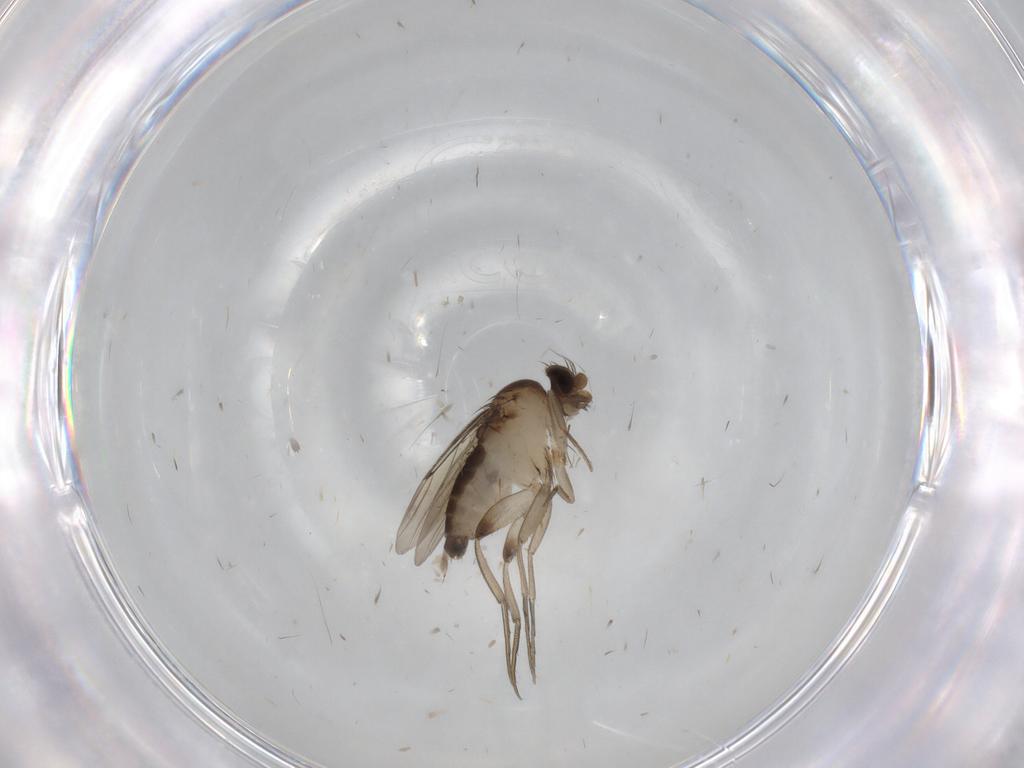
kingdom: Animalia
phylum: Arthropoda
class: Insecta
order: Diptera
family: Phoridae
